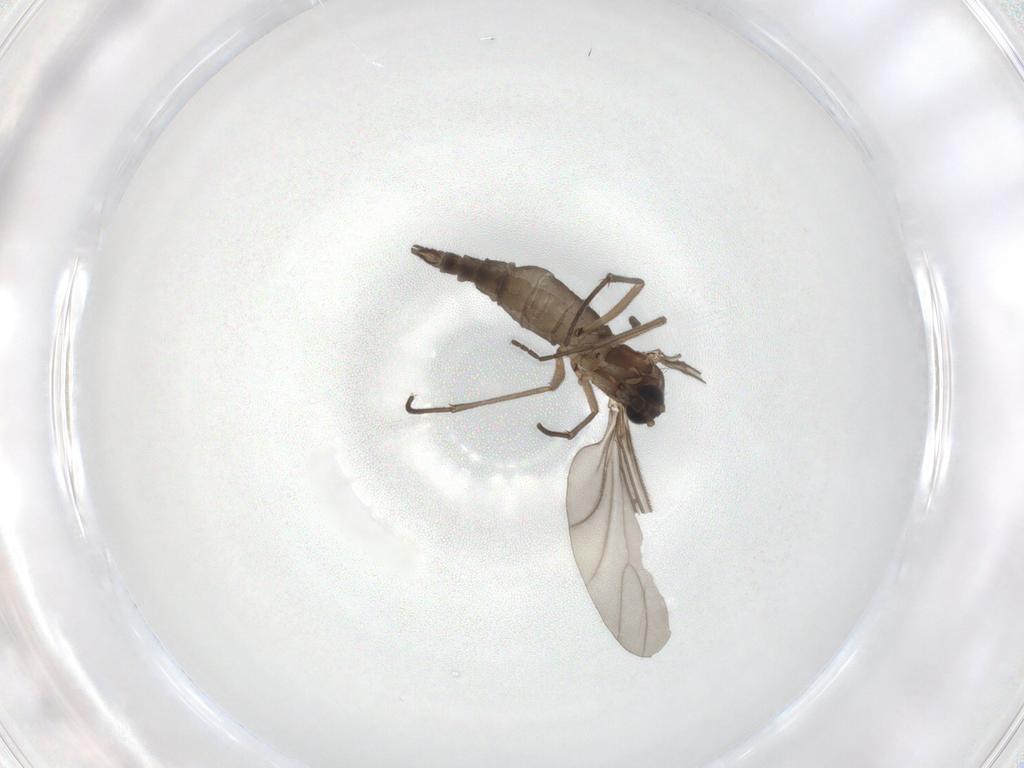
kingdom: Animalia
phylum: Arthropoda
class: Insecta
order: Diptera
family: Sciaridae
